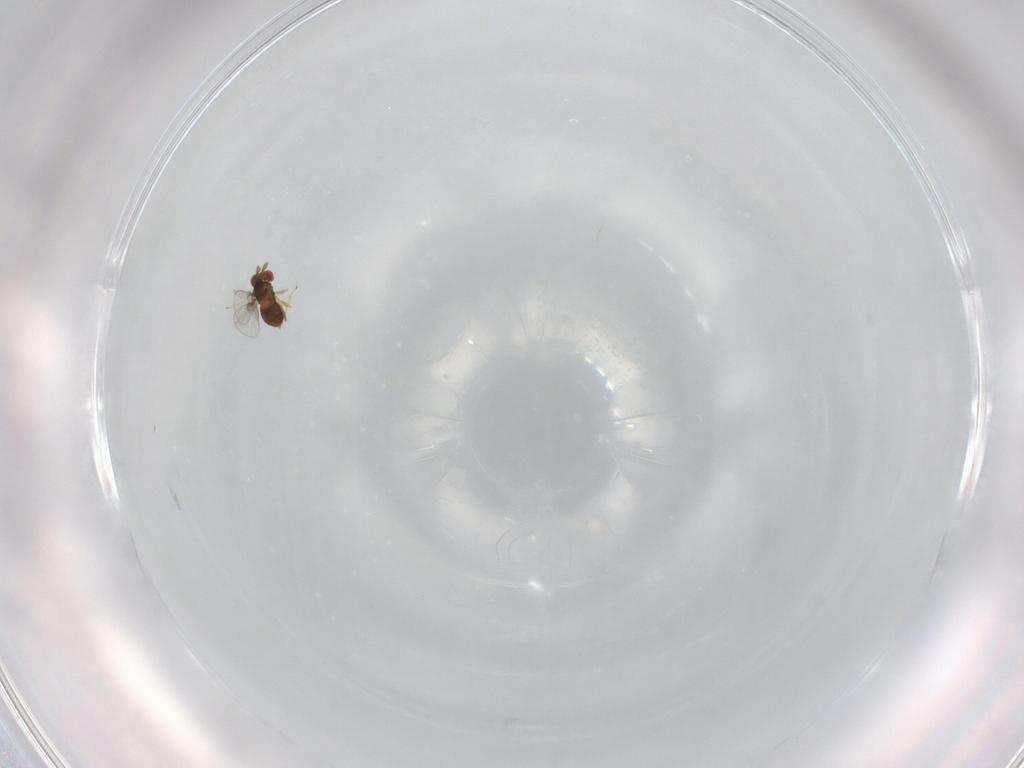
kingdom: Animalia
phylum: Arthropoda
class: Insecta
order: Hymenoptera
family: Trichogrammatidae
